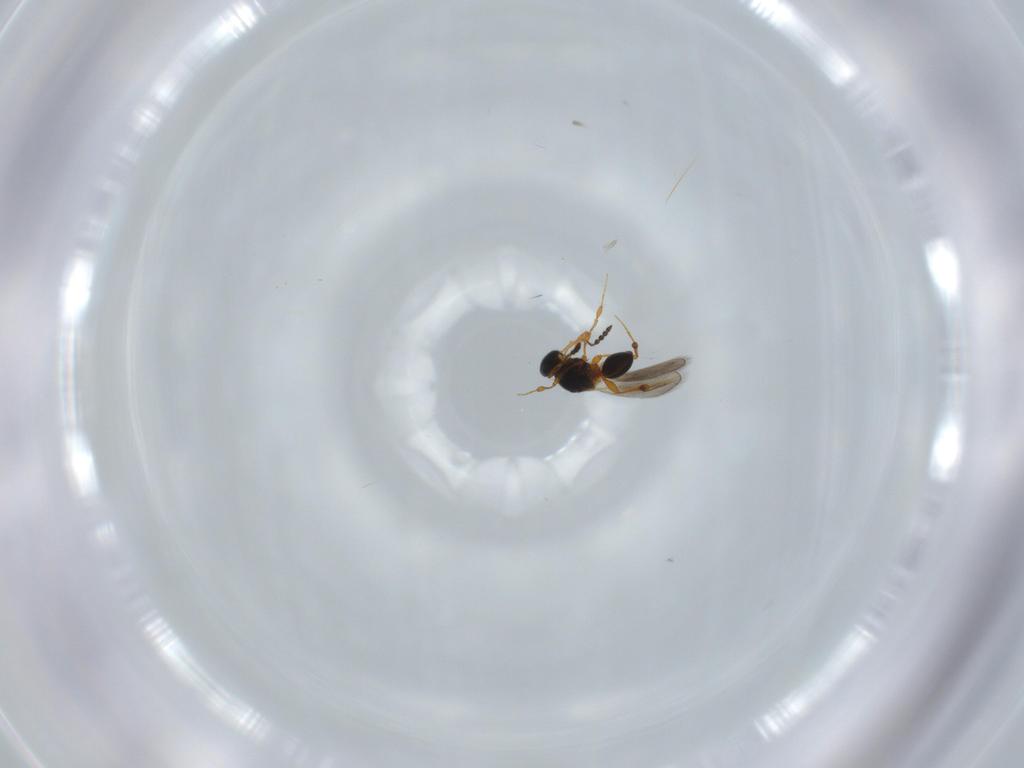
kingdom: Animalia
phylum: Arthropoda
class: Insecta
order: Hymenoptera
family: Platygastridae
